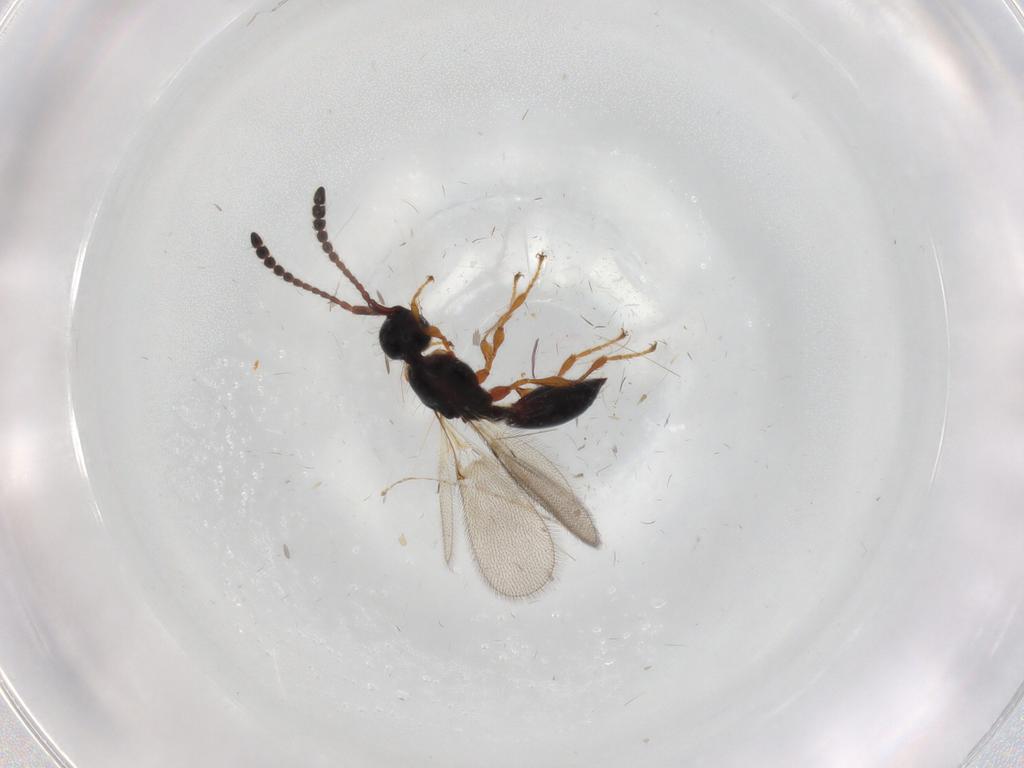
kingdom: Animalia
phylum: Arthropoda
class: Insecta
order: Hymenoptera
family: Diapriidae
